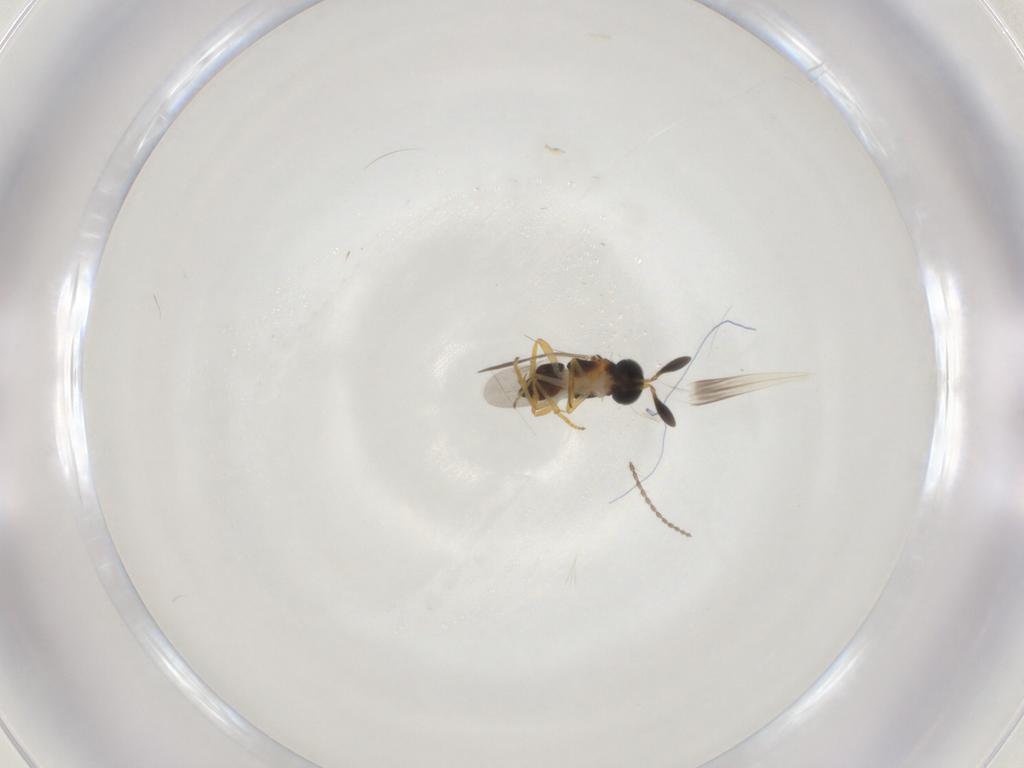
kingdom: Animalia
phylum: Arthropoda
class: Insecta
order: Hymenoptera
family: Encyrtidae
